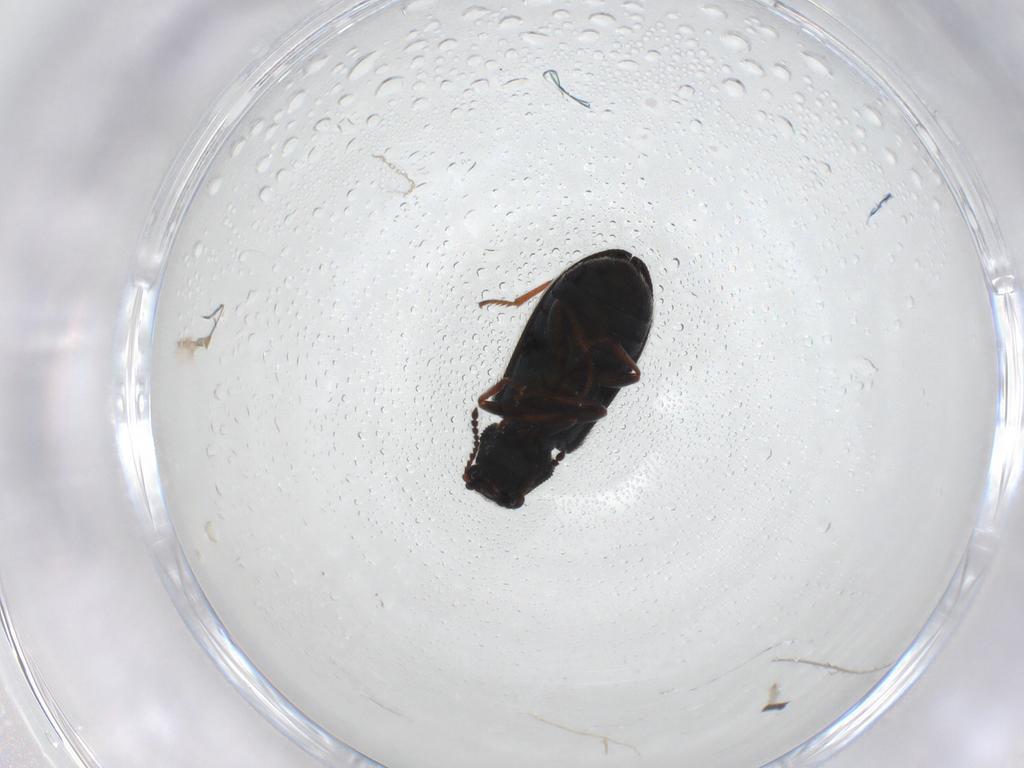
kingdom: Animalia
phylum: Arthropoda
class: Insecta
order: Coleoptera
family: Melyridae
